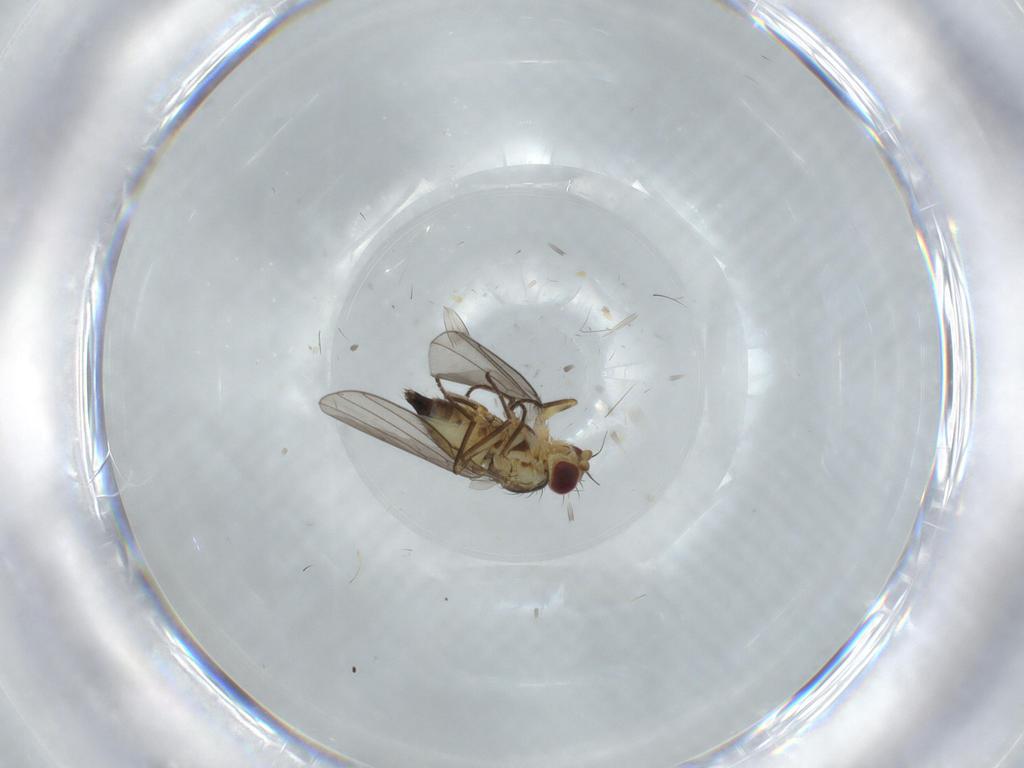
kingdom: Animalia
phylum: Arthropoda
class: Insecta
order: Diptera
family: Agromyzidae
